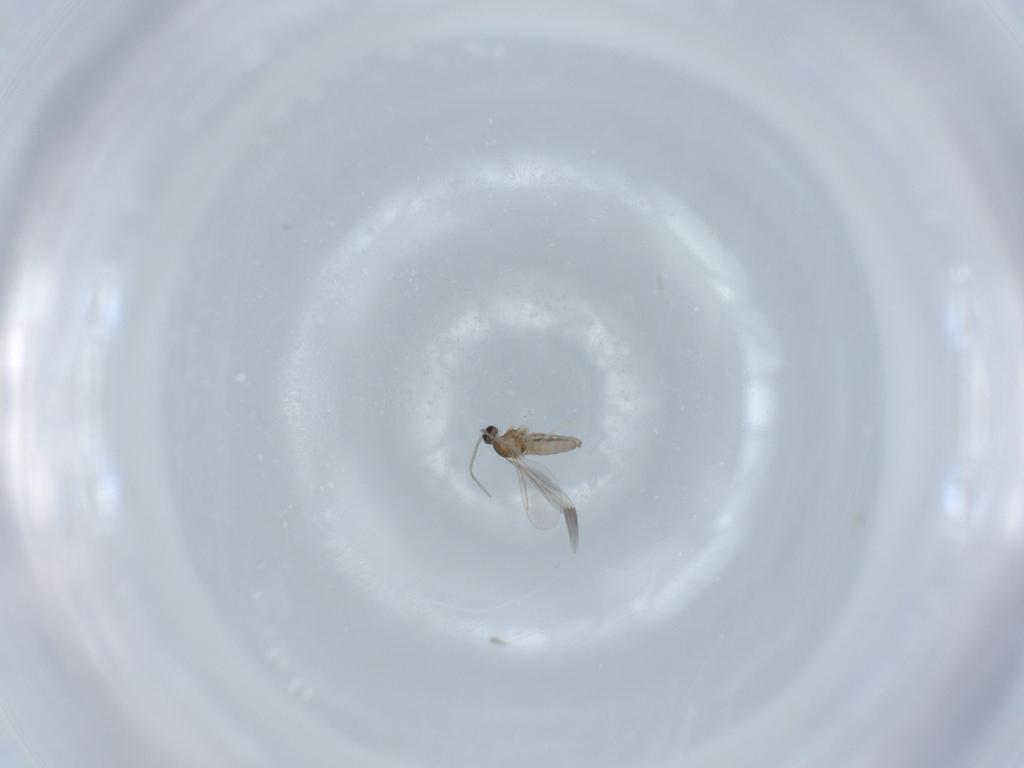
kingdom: Animalia
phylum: Arthropoda
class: Insecta
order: Diptera
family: Cecidomyiidae
